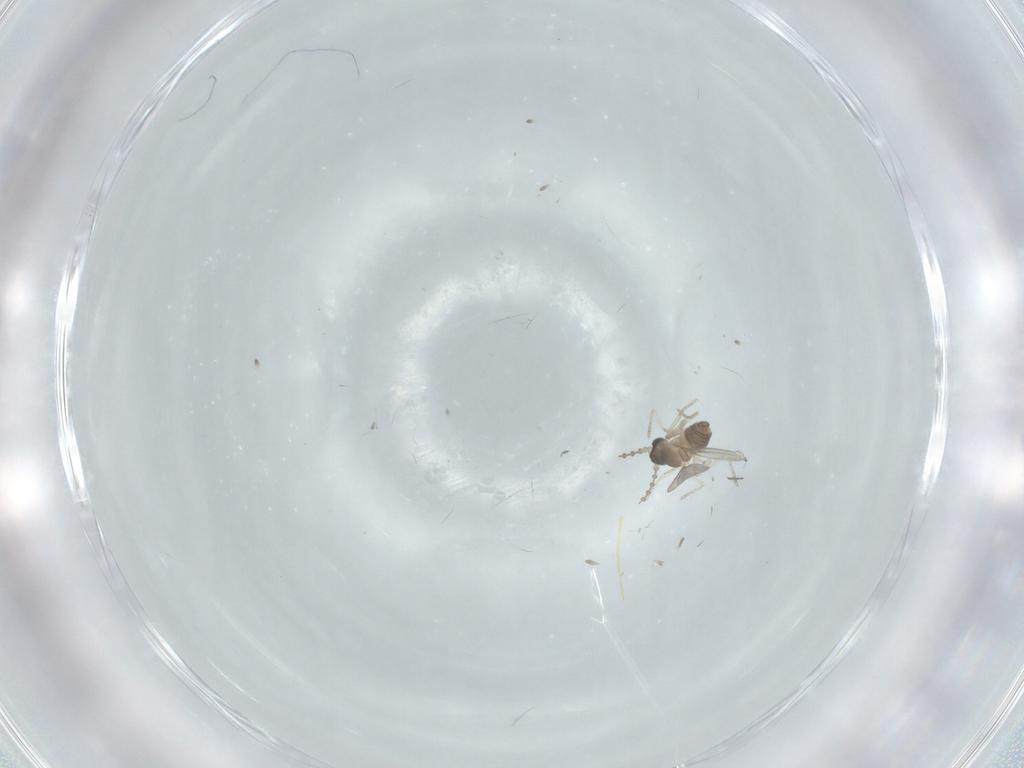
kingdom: Animalia
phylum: Arthropoda
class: Insecta
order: Diptera
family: Cecidomyiidae
